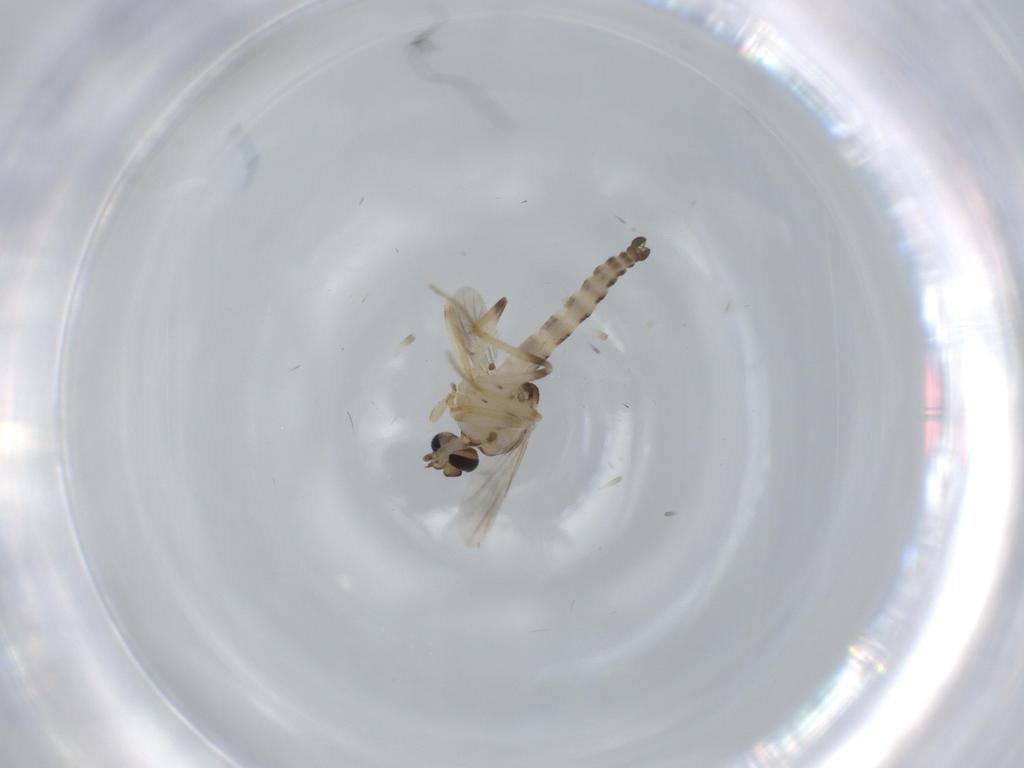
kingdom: Animalia
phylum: Arthropoda
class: Insecta
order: Diptera
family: Ceratopogonidae
